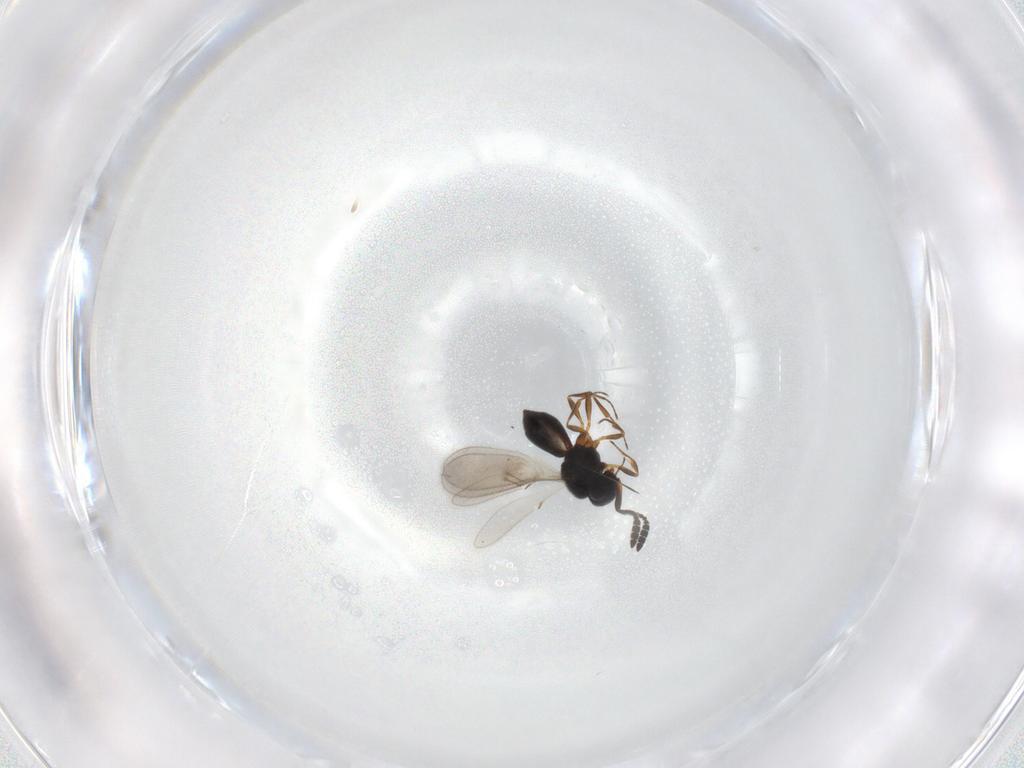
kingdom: Animalia
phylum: Arthropoda
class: Insecta
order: Hymenoptera
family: Scelionidae
